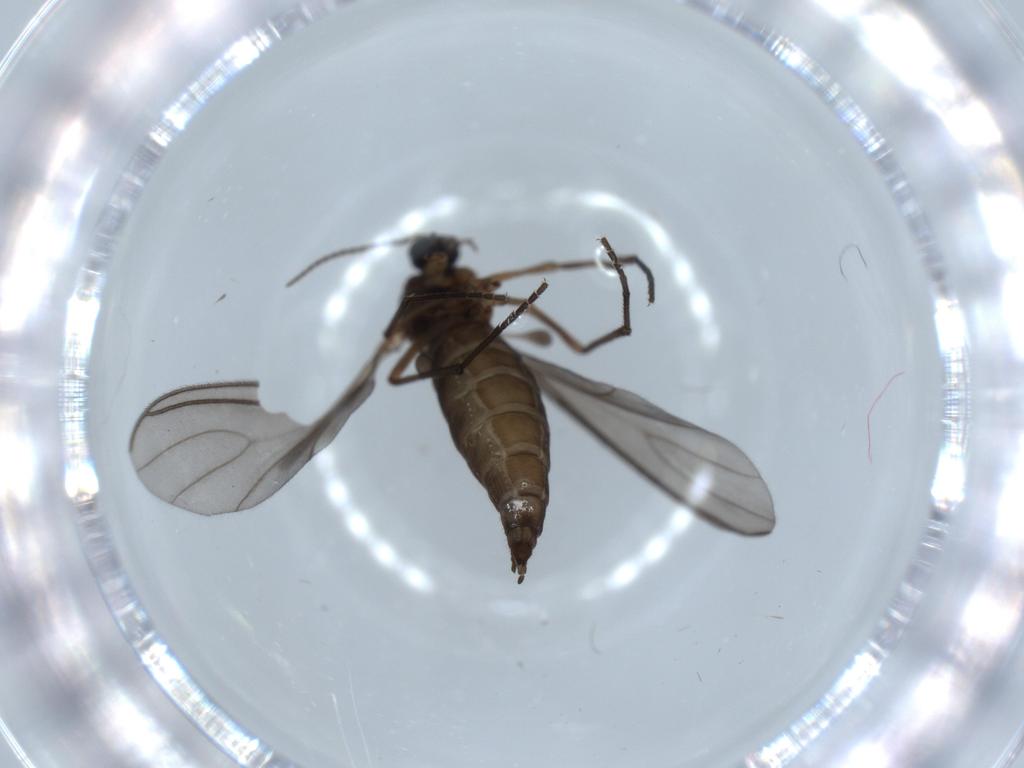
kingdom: Animalia
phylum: Arthropoda
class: Insecta
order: Diptera
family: Sciaridae
